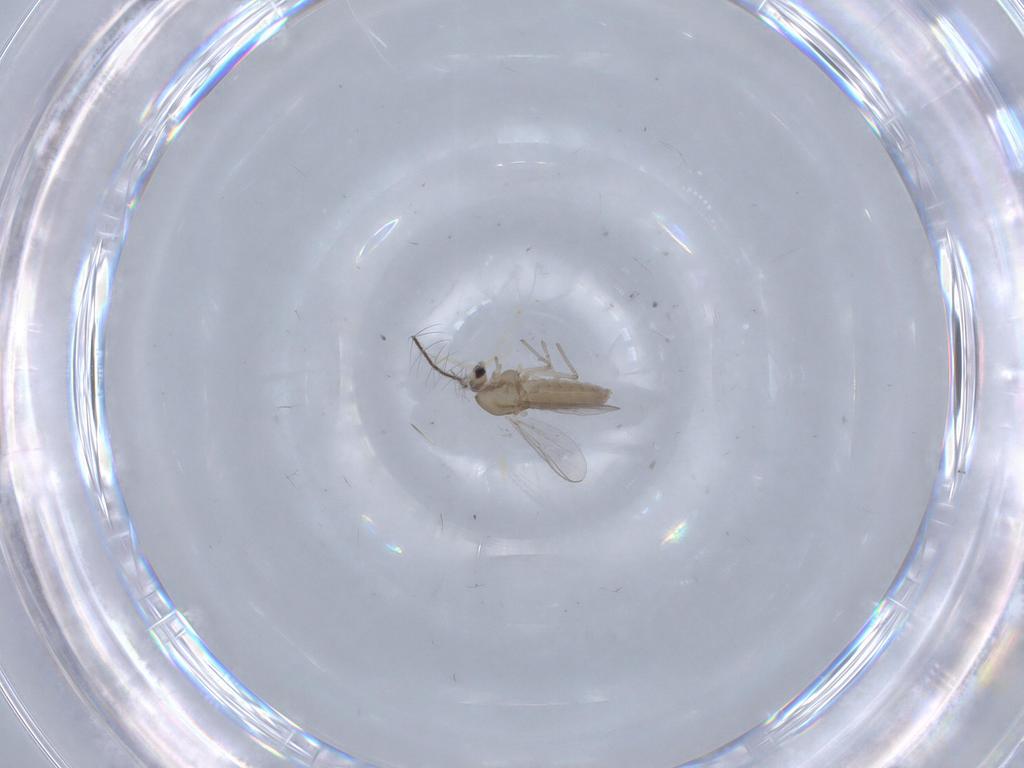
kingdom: Animalia
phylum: Arthropoda
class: Insecta
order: Diptera
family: Chironomidae
